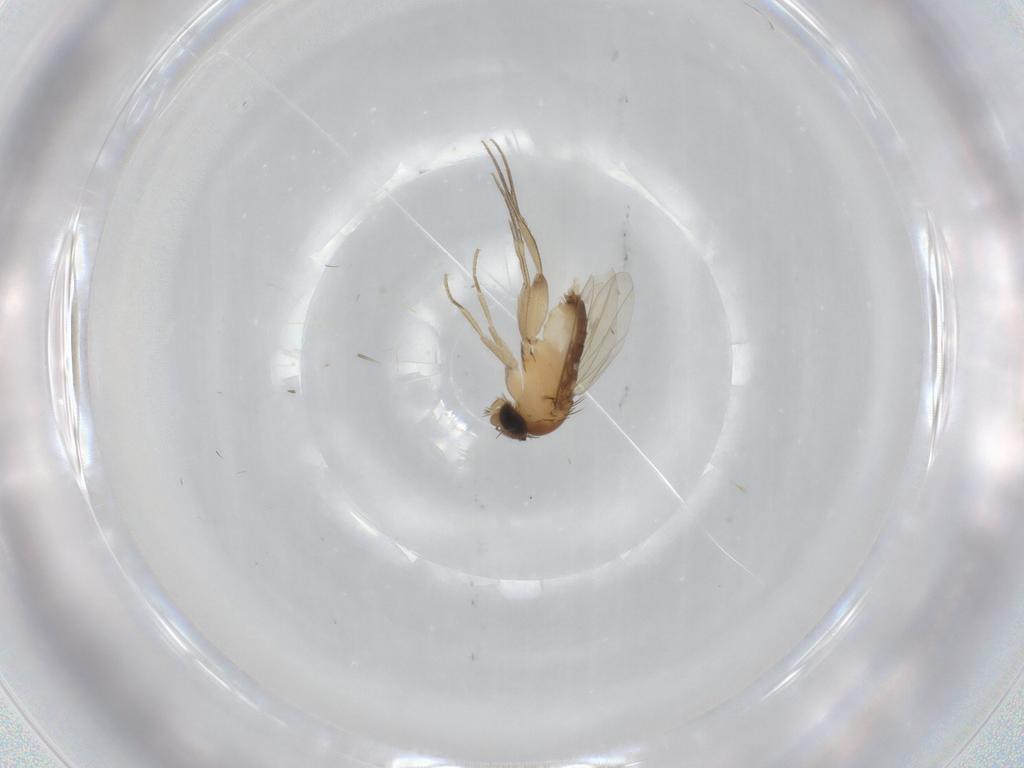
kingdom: Animalia
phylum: Arthropoda
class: Insecta
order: Diptera
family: Phoridae
